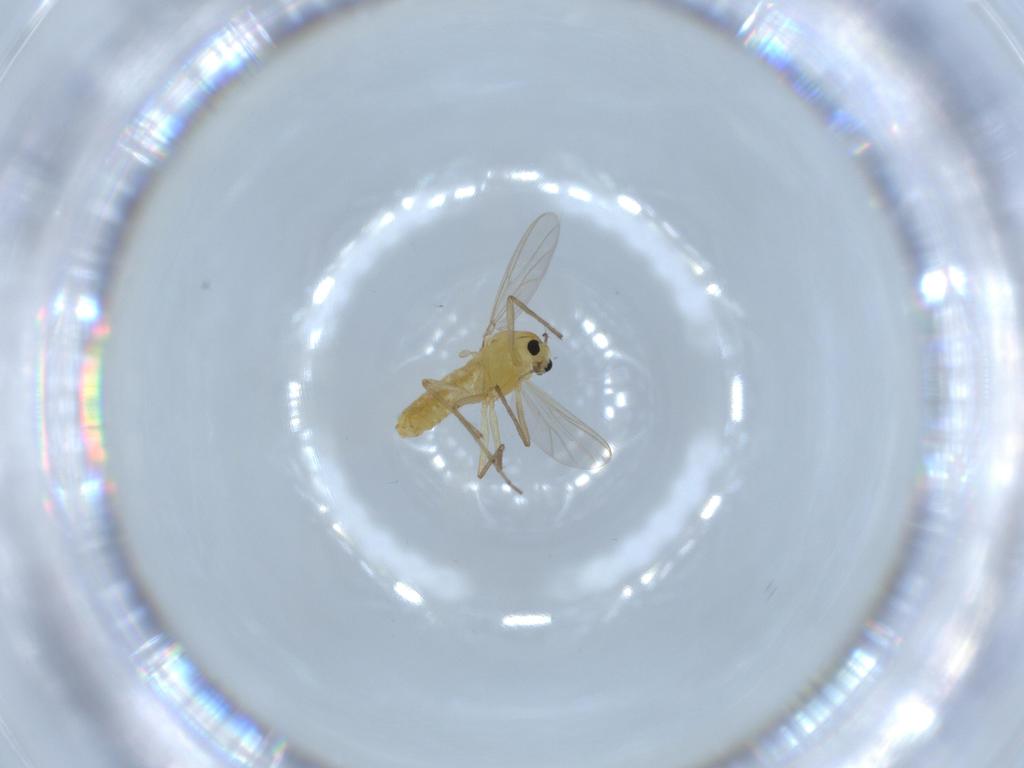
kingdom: Animalia
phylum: Arthropoda
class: Insecta
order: Diptera
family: Chironomidae
